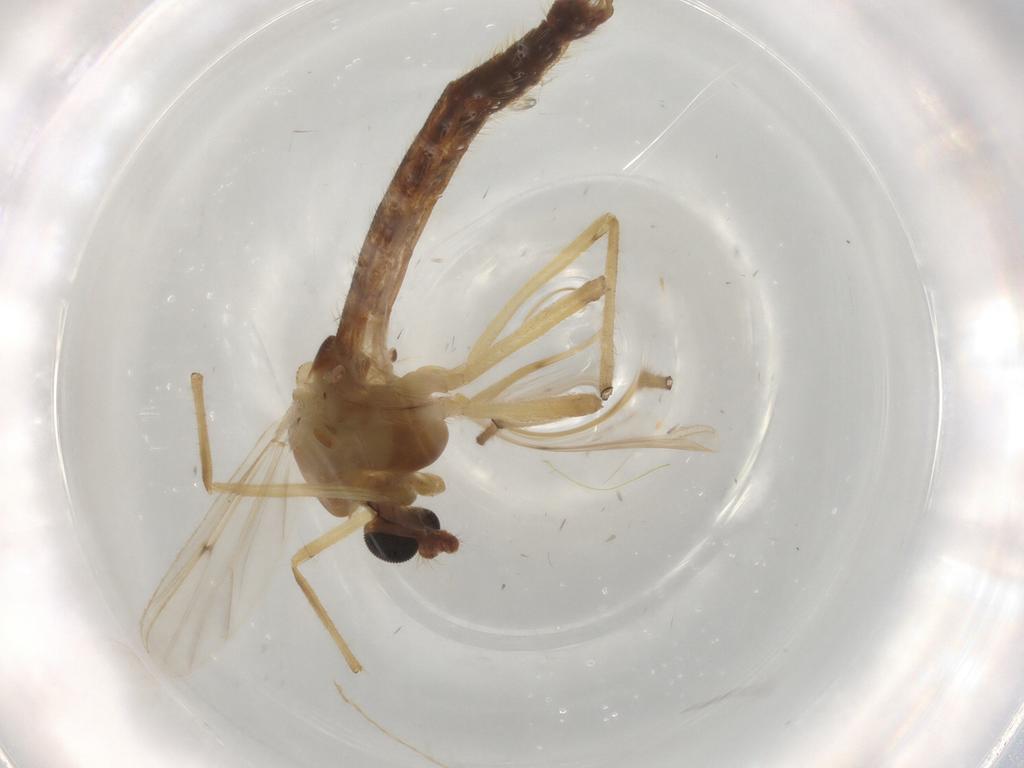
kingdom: Animalia
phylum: Arthropoda
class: Insecta
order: Diptera
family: Chironomidae
